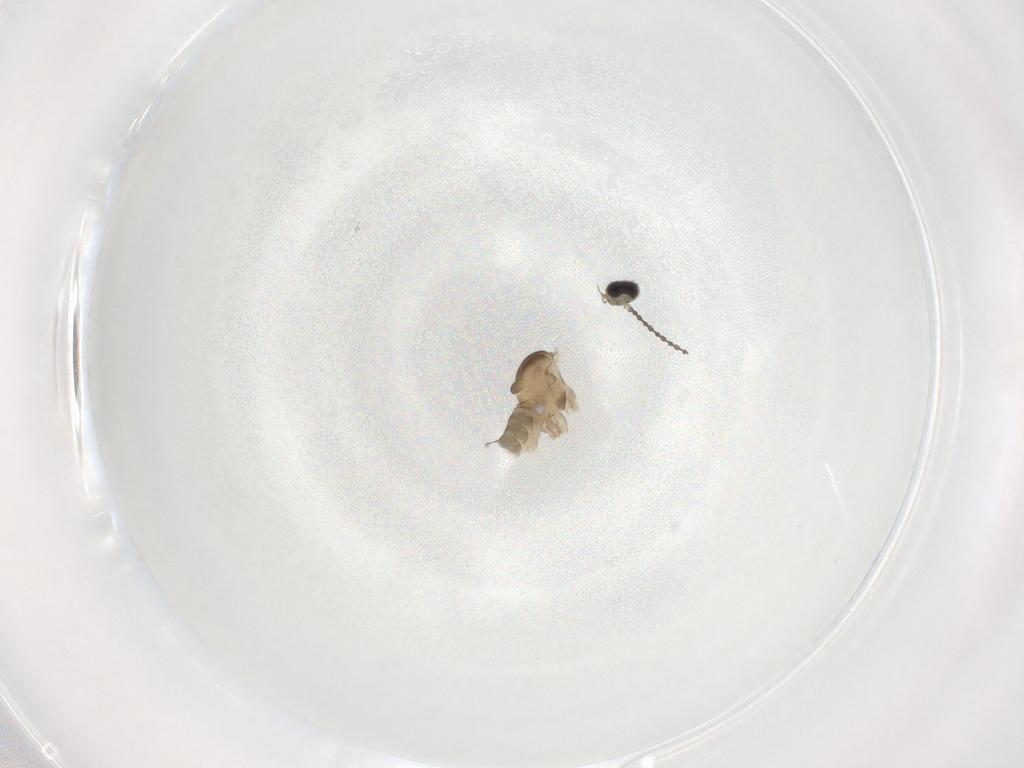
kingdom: Animalia
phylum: Arthropoda
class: Insecta
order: Diptera
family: Cecidomyiidae
